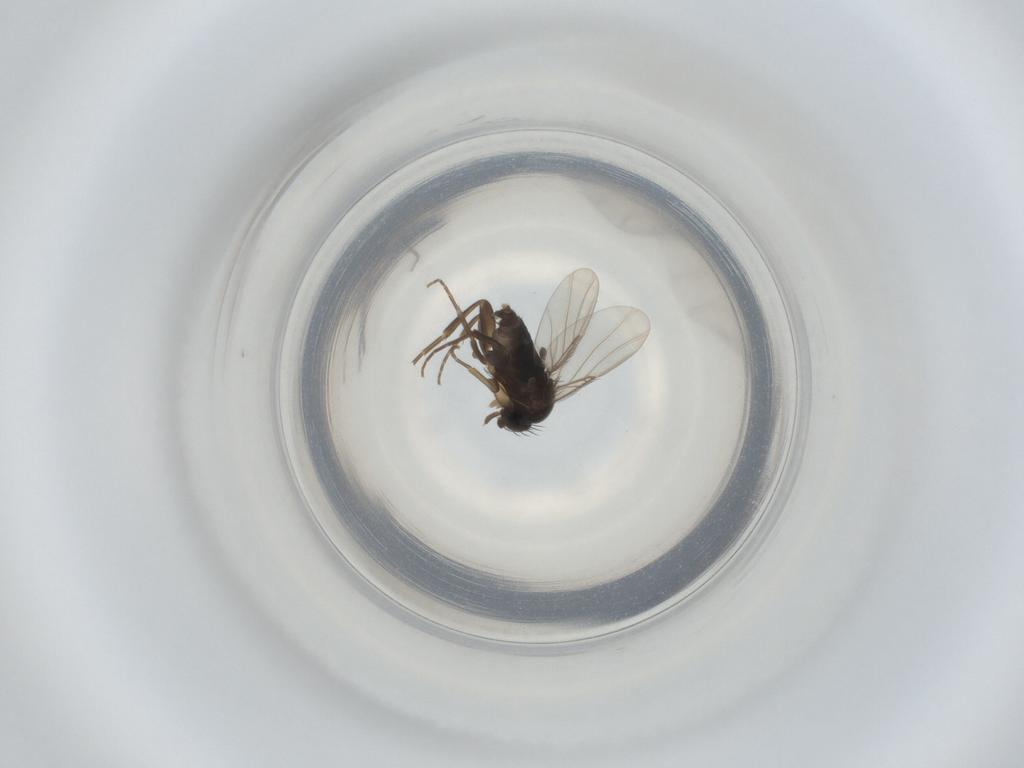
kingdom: Animalia
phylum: Arthropoda
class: Insecta
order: Diptera
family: Phoridae
